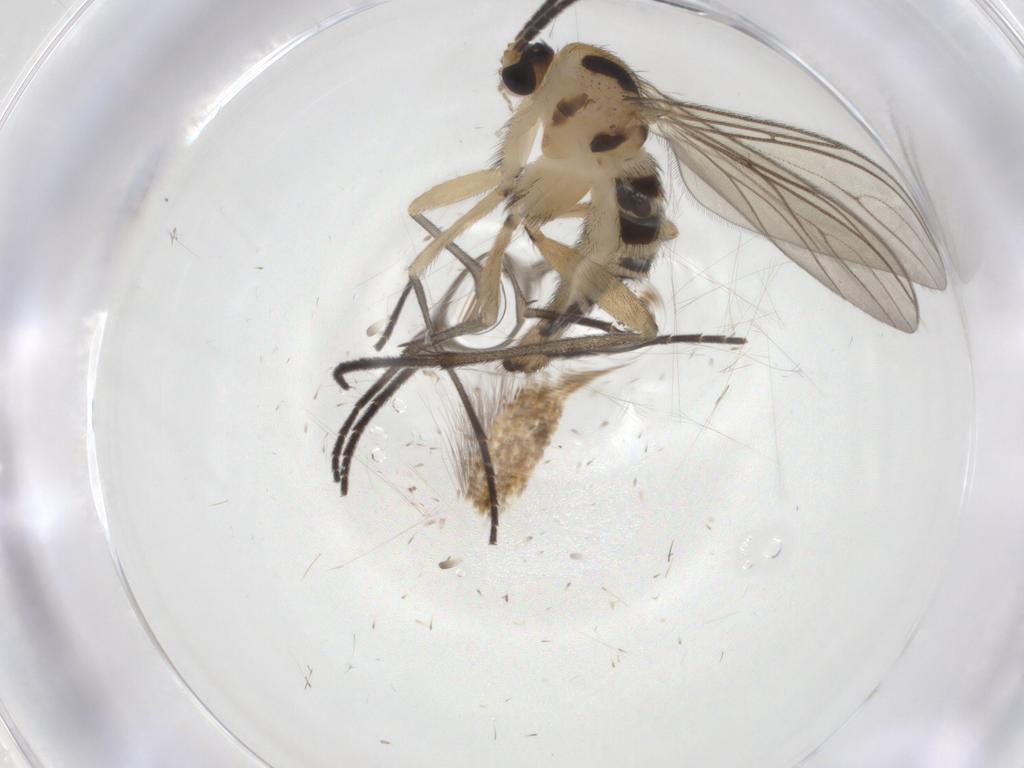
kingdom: Animalia
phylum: Arthropoda
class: Insecta
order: Diptera
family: Sciaridae
